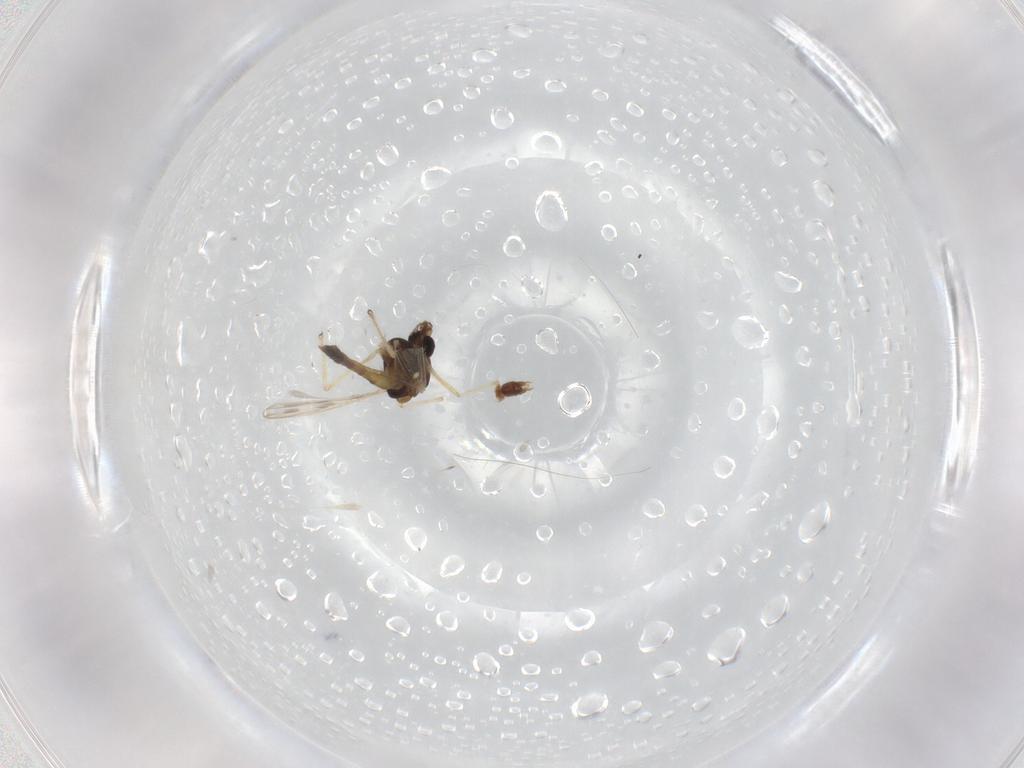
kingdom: Animalia
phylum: Arthropoda
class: Insecta
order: Diptera
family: Chironomidae
